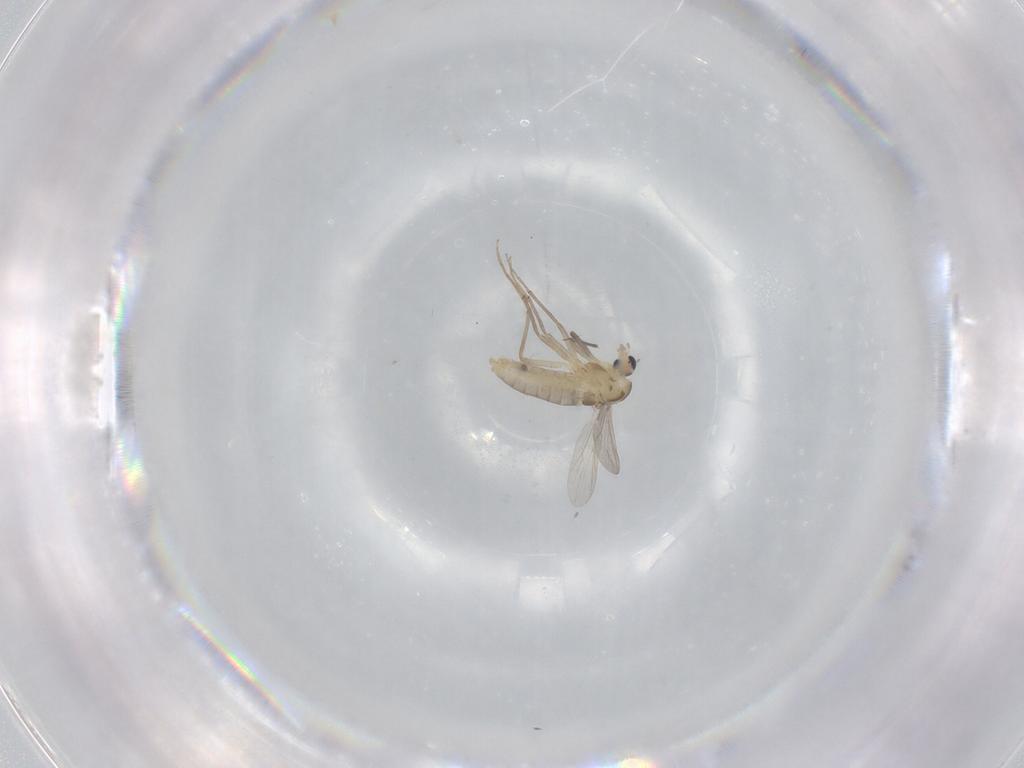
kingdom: Animalia
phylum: Arthropoda
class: Insecta
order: Diptera
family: Chironomidae
